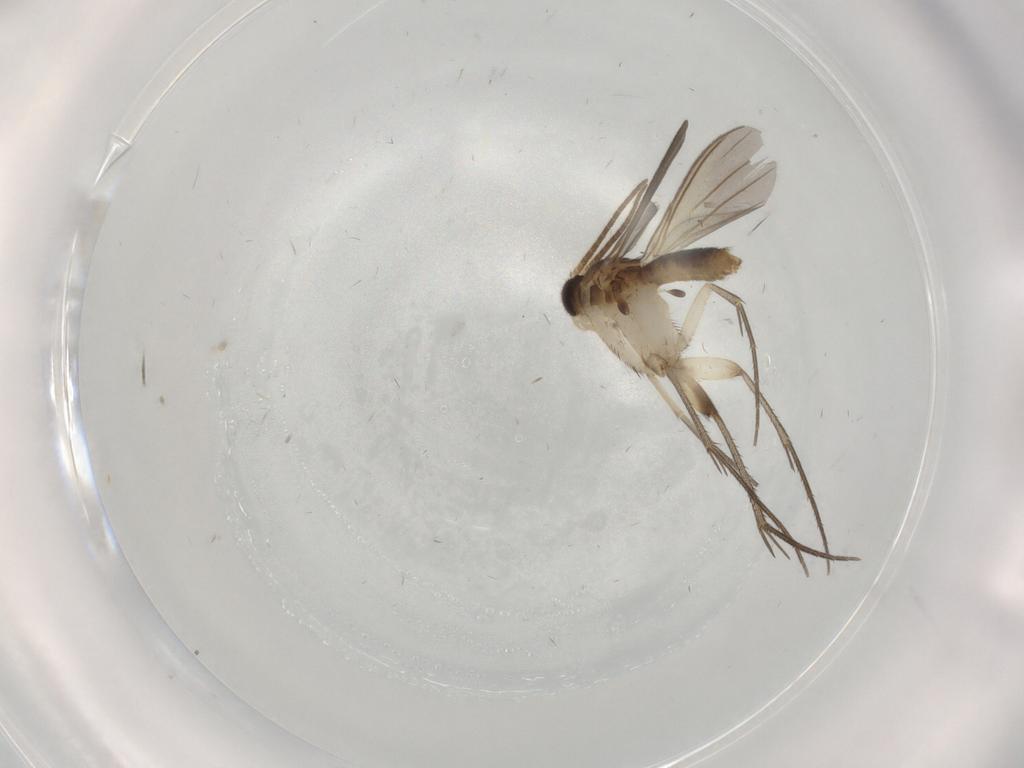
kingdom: Animalia
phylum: Arthropoda
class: Insecta
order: Diptera
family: Mycetophilidae
